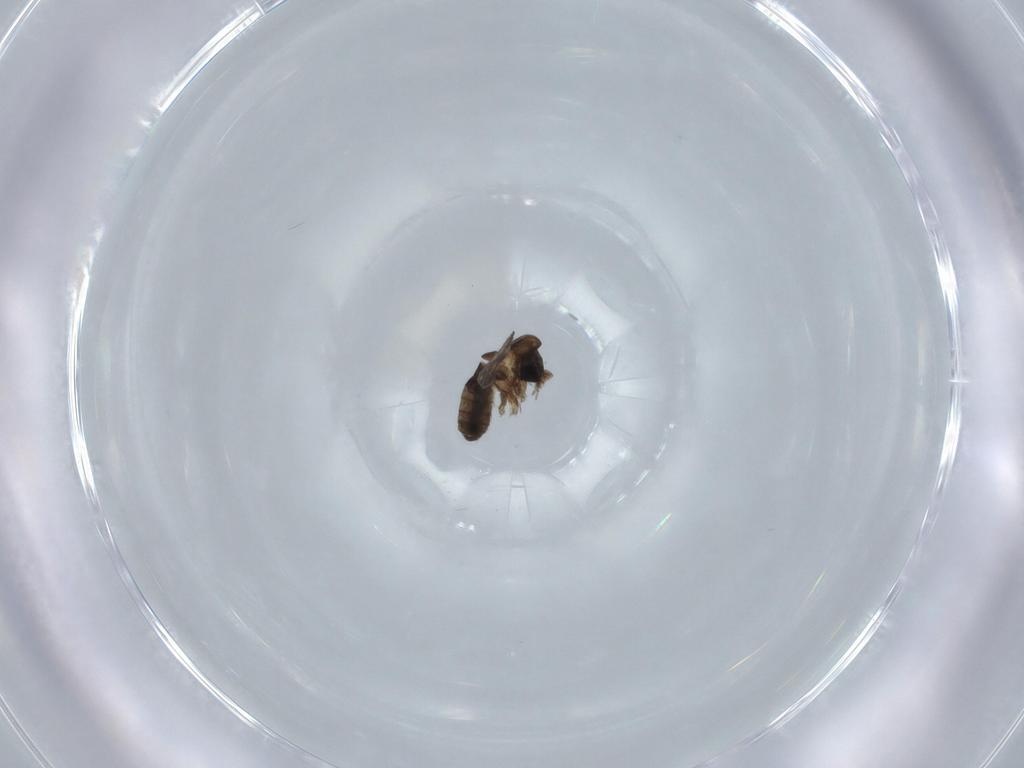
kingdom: Animalia
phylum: Arthropoda
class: Insecta
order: Diptera
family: Psychodidae
